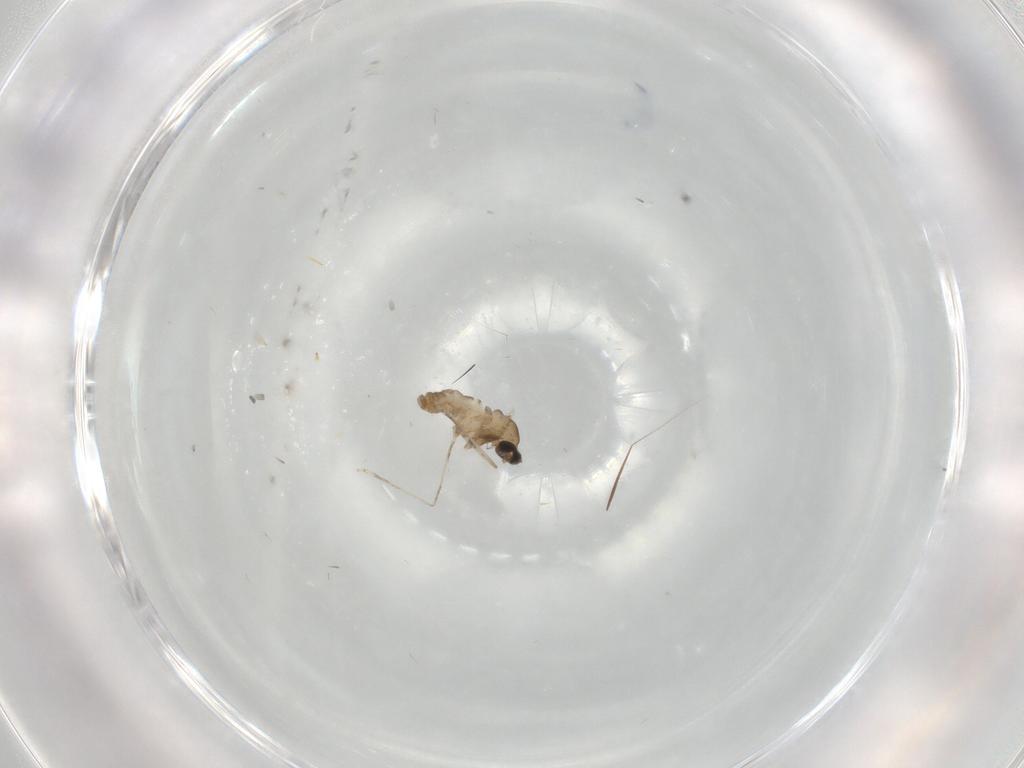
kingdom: Animalia
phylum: Arthropoda
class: Insecta
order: Diptera
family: Ceratopogonidae
